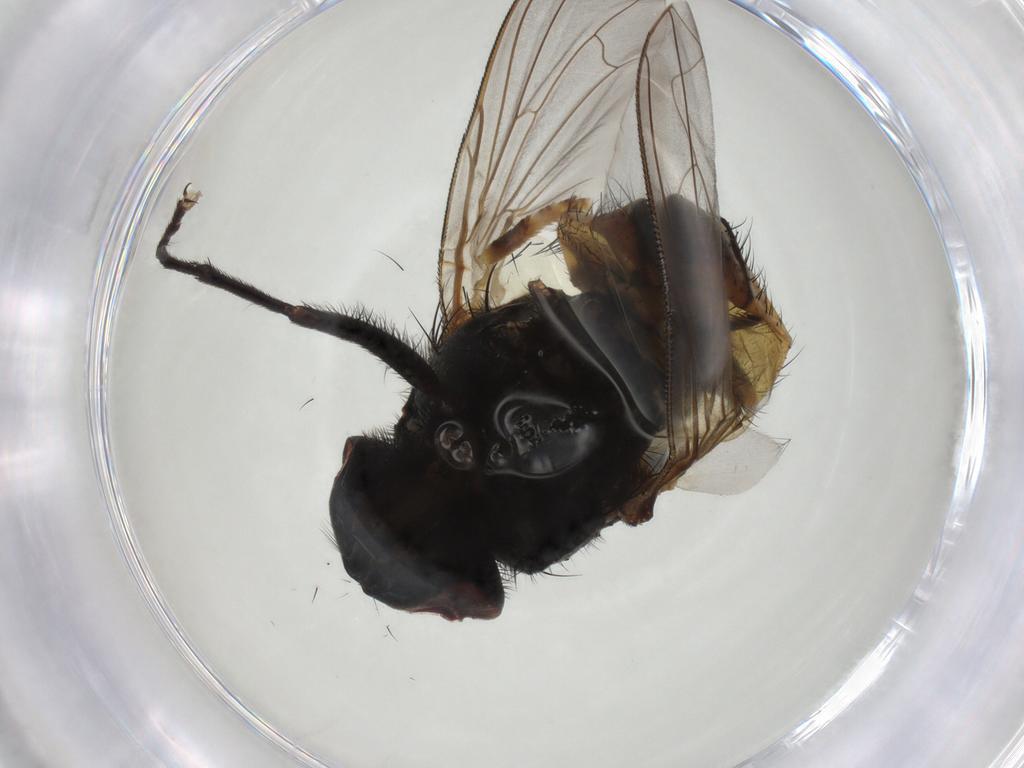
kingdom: Animalia
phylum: Arthropoda
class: Insecta
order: Diptera
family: Muscidae
